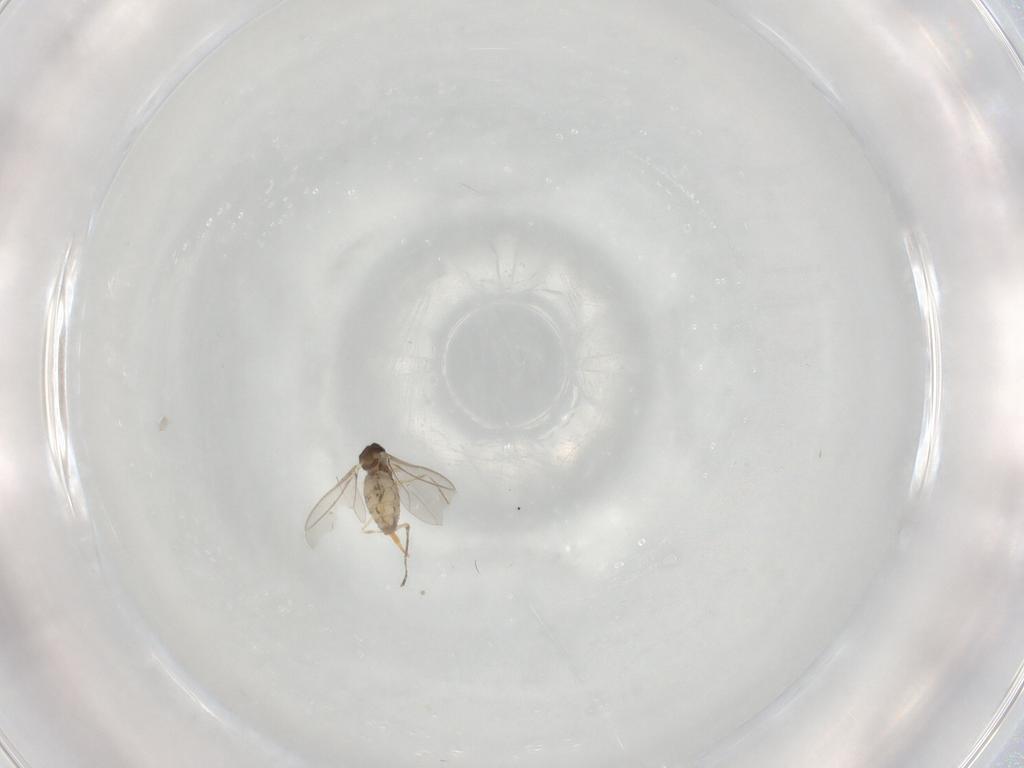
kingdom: Animalia
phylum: Arthropoda
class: Insecta
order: Diptera
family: Cecidomyiidae
